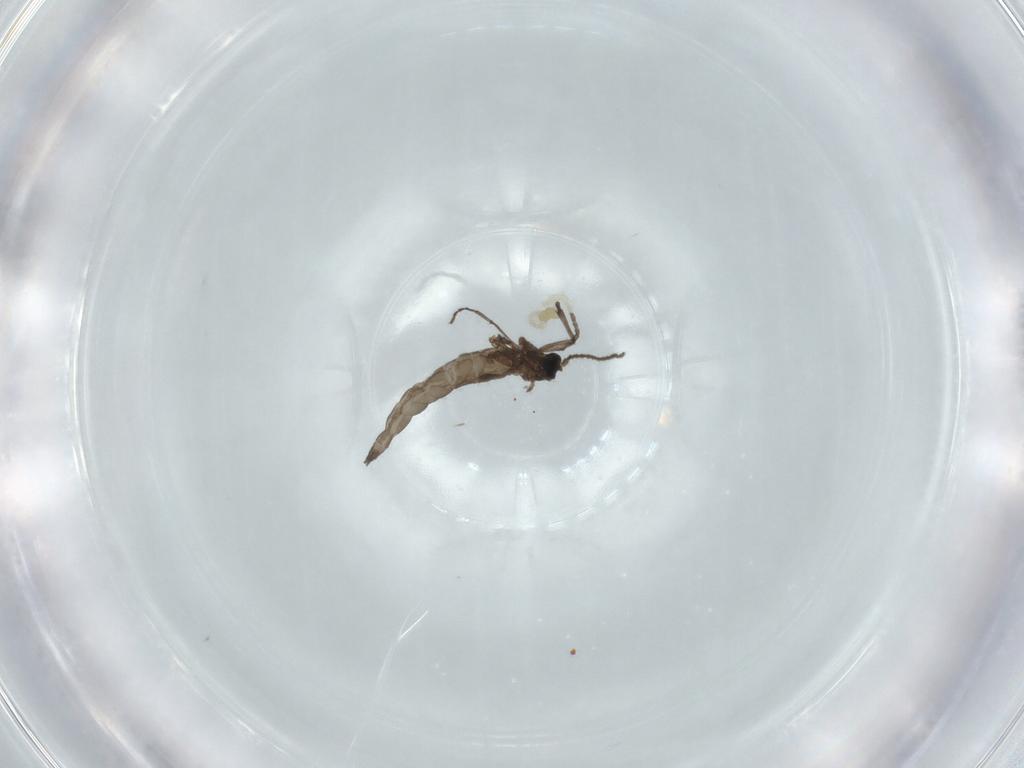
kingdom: Animalia
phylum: Arthropoda
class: Insecta
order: Diptera
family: Sciaridae
